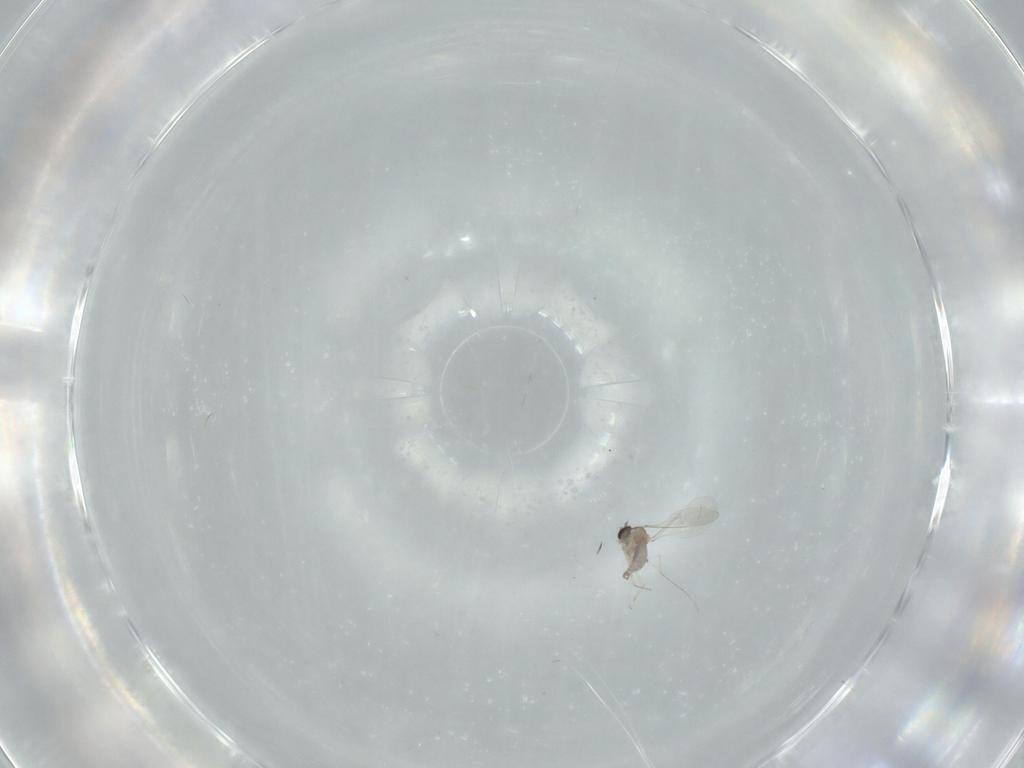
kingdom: Animalia
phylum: Arthropoda
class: Insecta
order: Diptera
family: Cecidomyiidae
